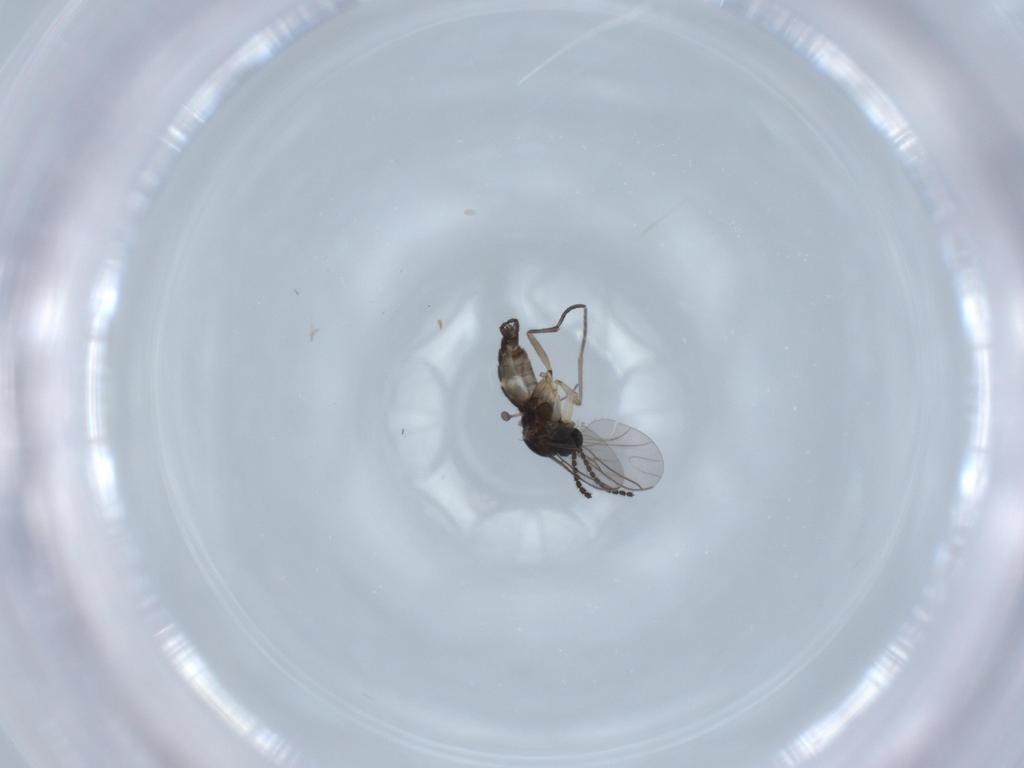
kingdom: Animalia
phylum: Arthropoda
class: Insecta
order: Diptera
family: Sciaridae
